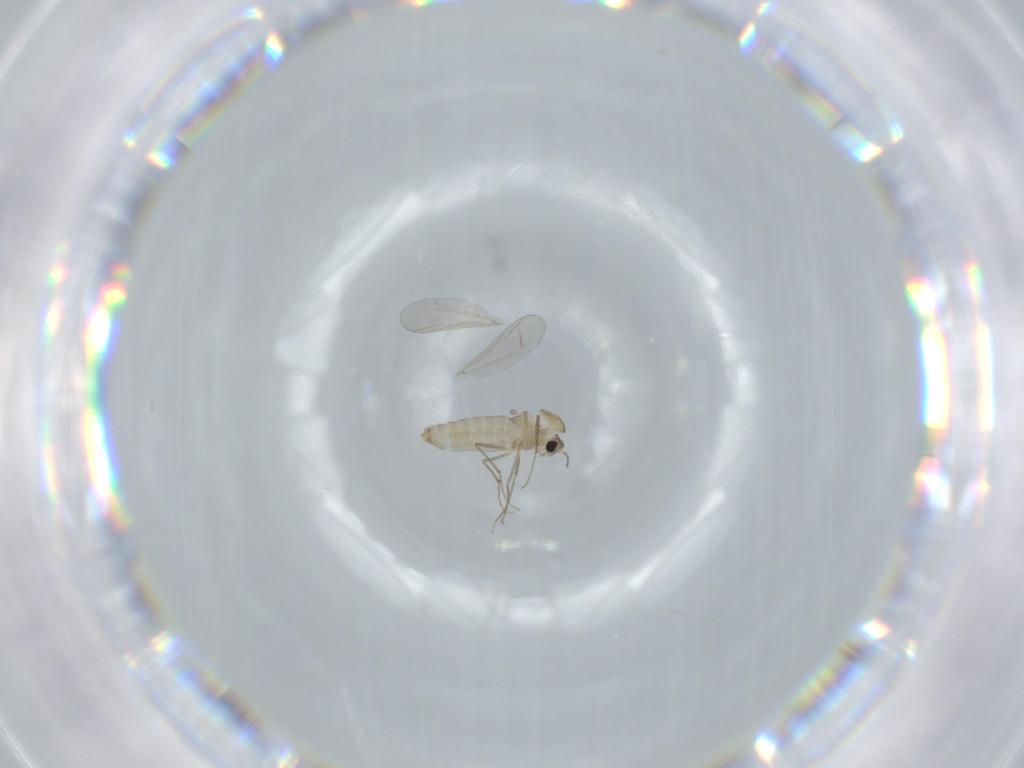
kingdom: Animalia
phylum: Arthropoda
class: Insecta
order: Diptera
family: Chironomidae
